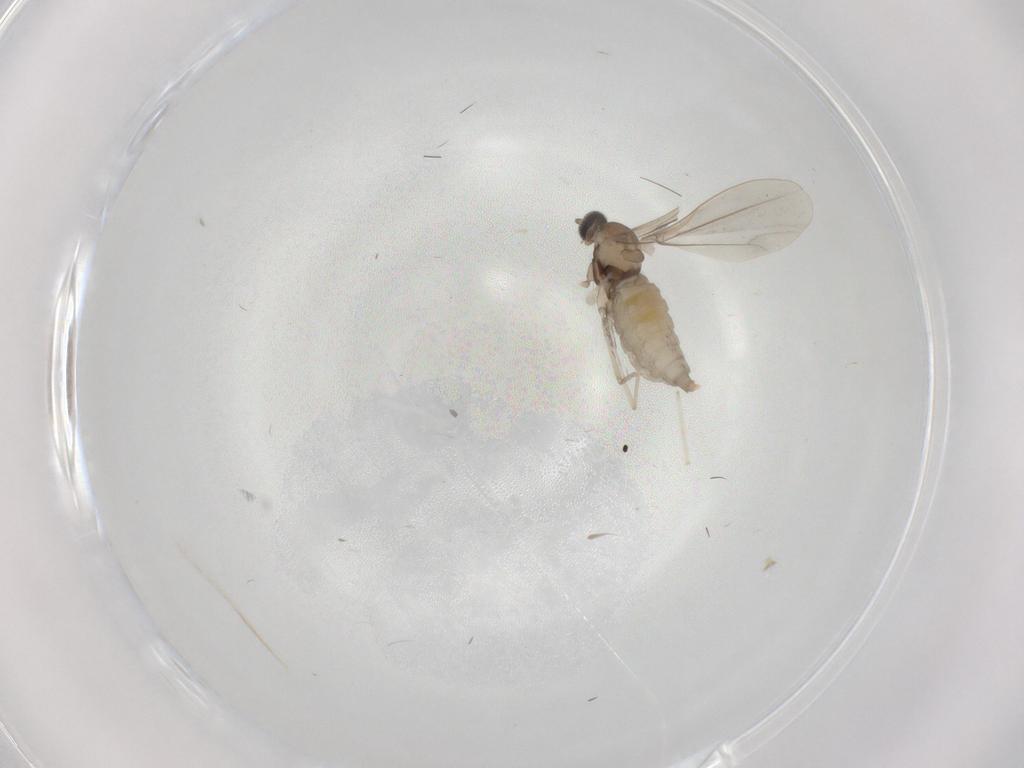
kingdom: Animalia
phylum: Arthropoda
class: Insecta
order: Diptera
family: Cecidomyiidae
